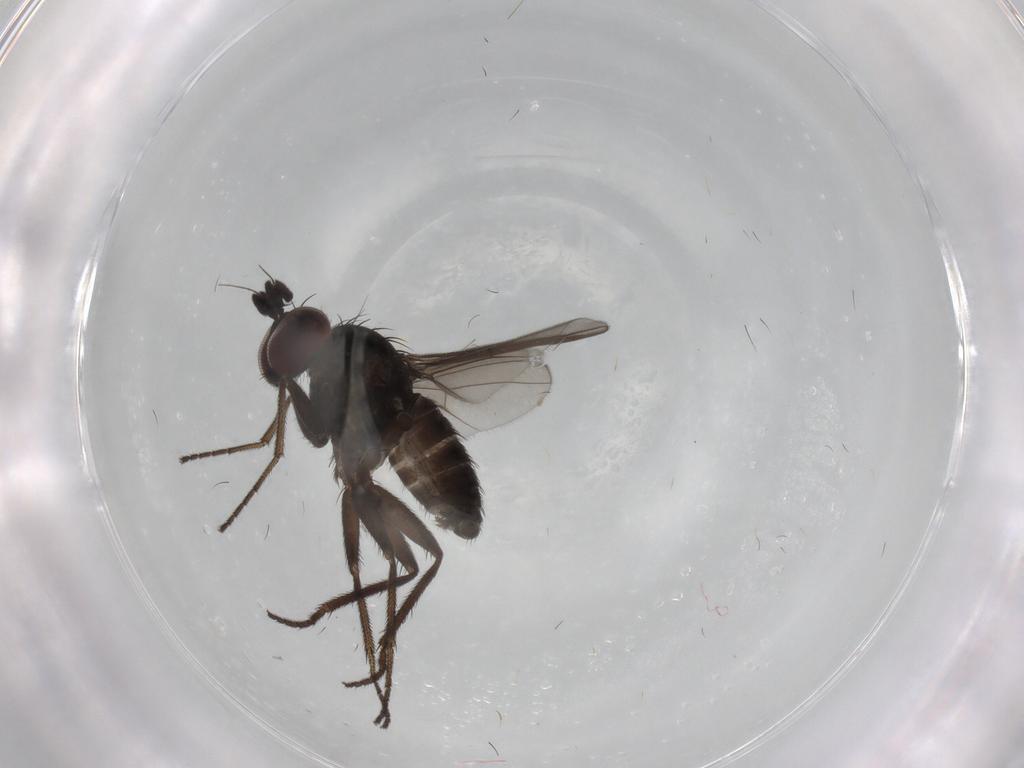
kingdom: Animalia
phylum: Arthropoda
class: Insecta
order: Diptera
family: Dolichopodidae
